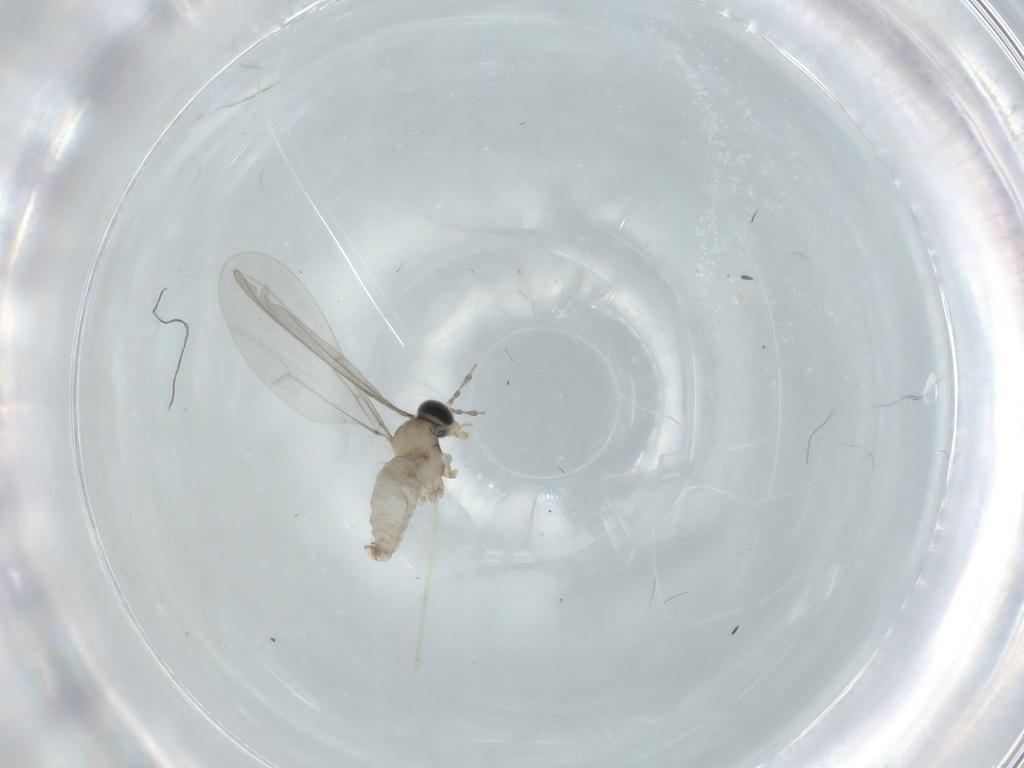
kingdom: Animalia
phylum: Arthropoda
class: Insecta
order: Diptera
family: Cecidomyiidae
